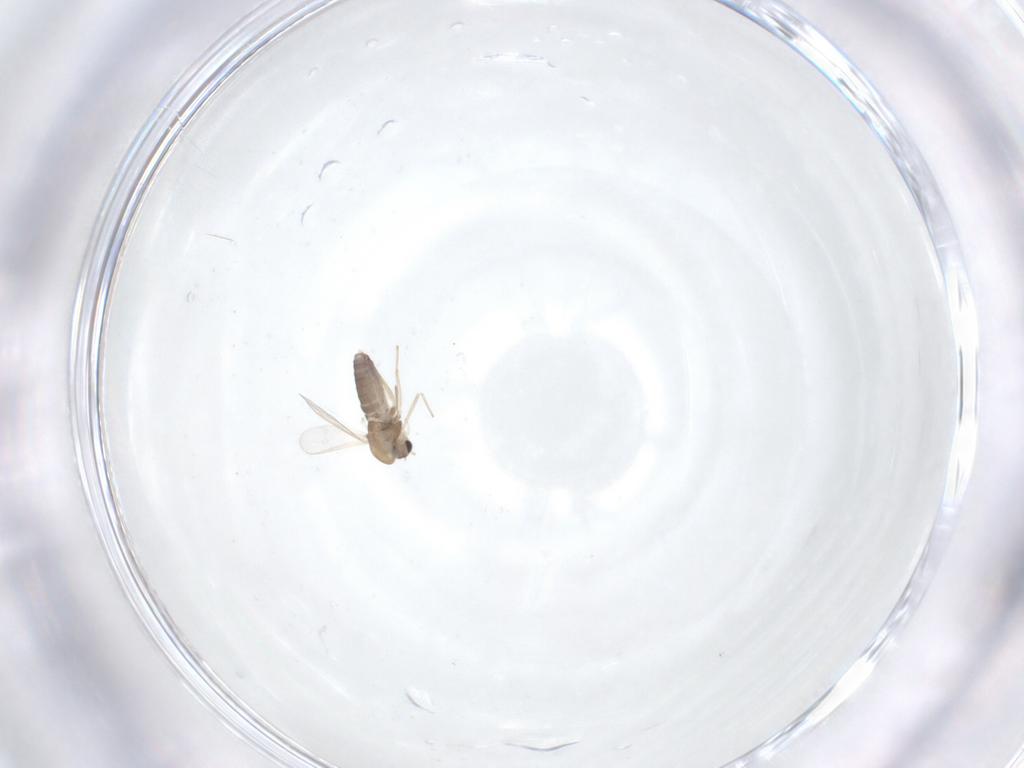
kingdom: Animalia
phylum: Arthropoda
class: Insecta
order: Diptera
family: Chironomidae
